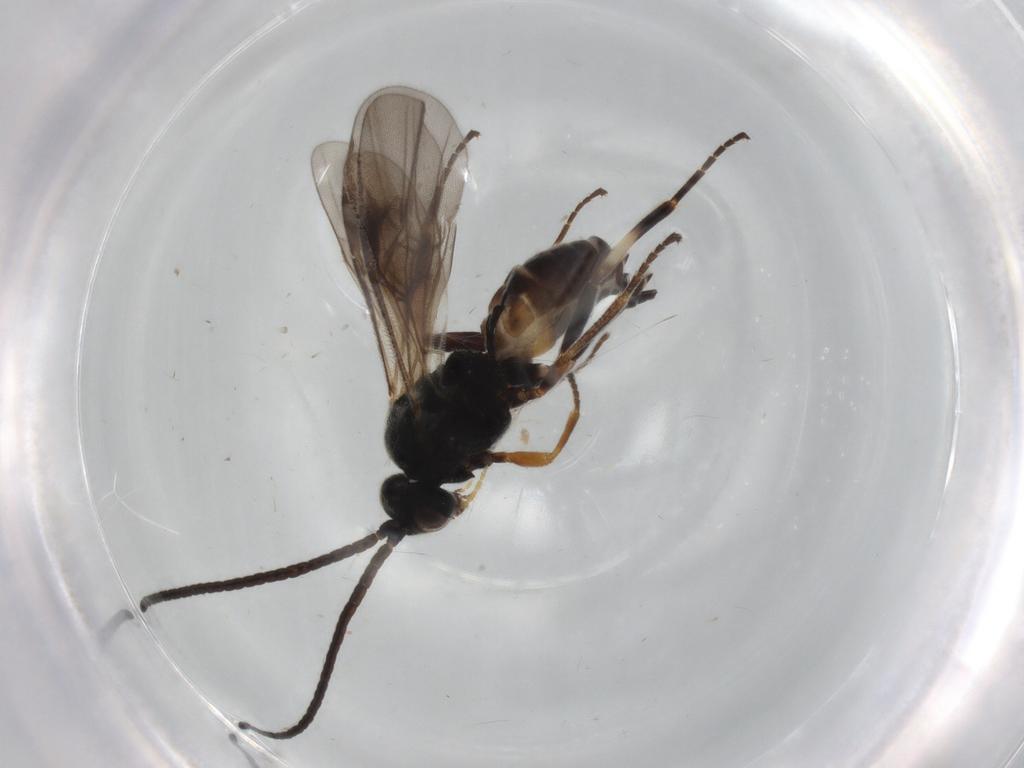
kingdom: Animalia
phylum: Arthropoda
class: Insecta
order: Hymenoptera
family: Braconidae
